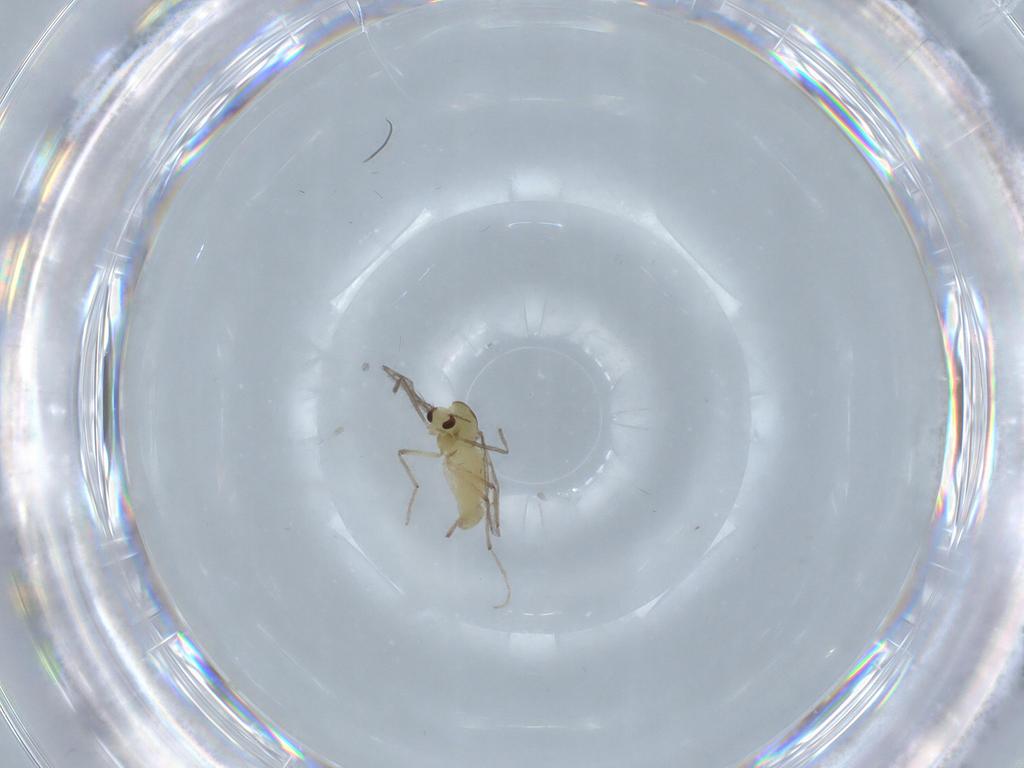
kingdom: Animalia
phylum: Arthropoda
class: Insecta
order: Diptera
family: Chironomidae
